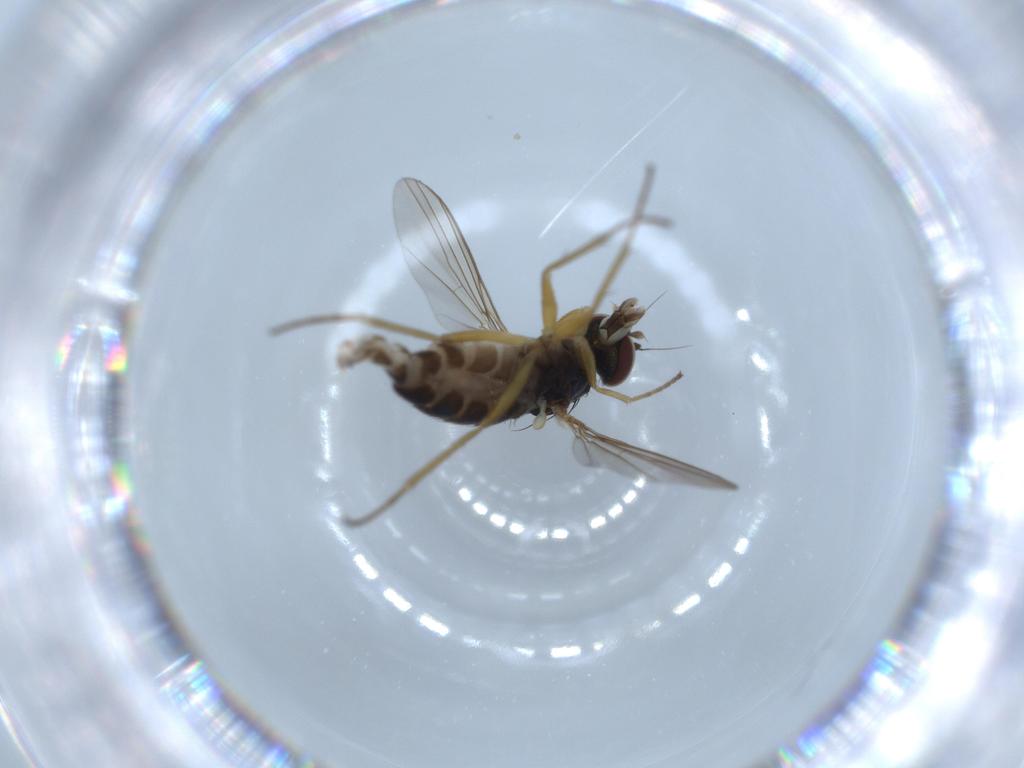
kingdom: Animalia
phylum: Arthropoda
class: Insecta
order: Diptera
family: Dolichopodidae
